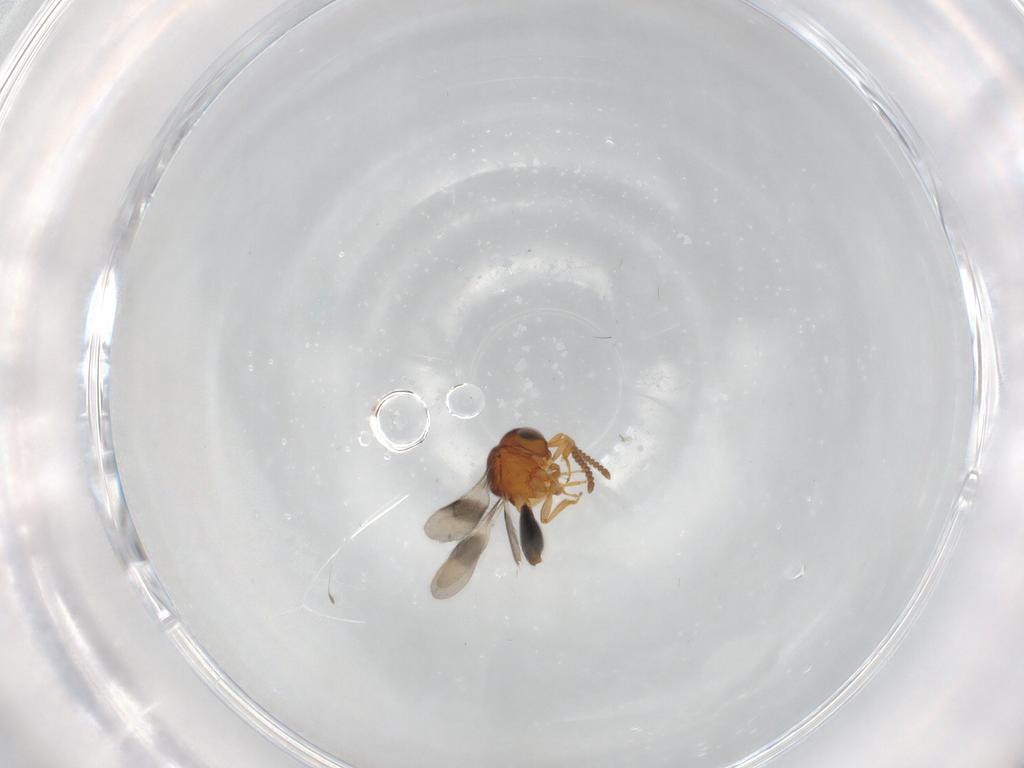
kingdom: Animalia
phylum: Arthropoda
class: Insecta
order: Hymenoptera
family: Scelionidae
